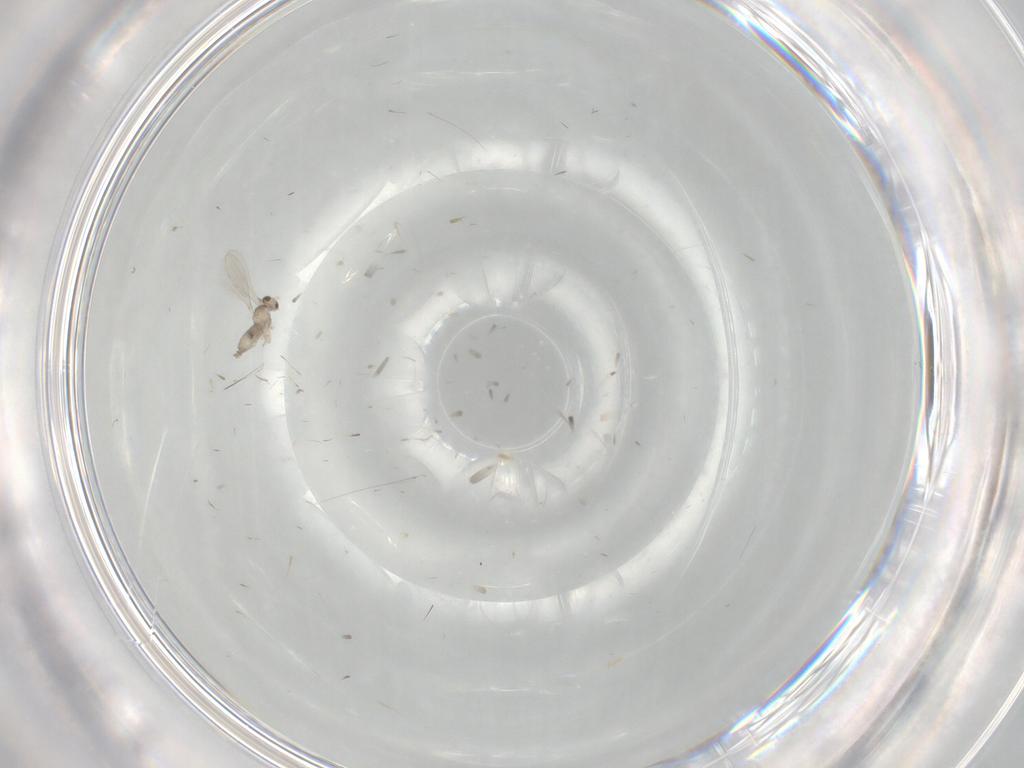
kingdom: Animalia
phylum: Arthropoda
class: Insecta
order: Diptera
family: Cecidomyiidae
